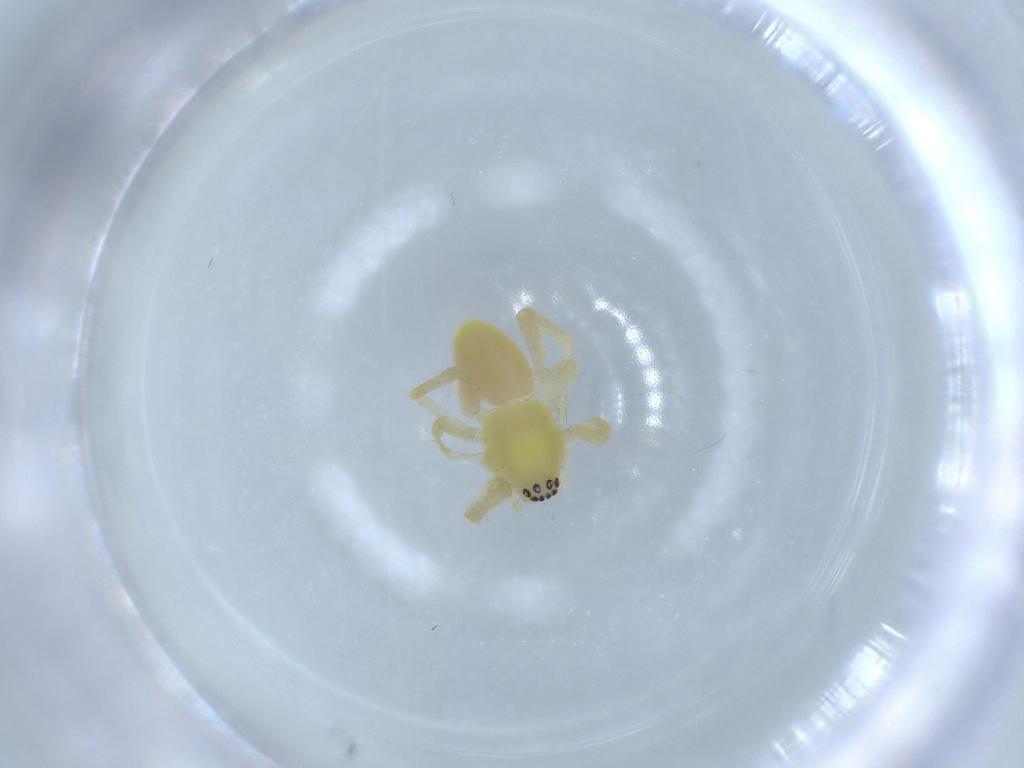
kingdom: Animalia
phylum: Arthropoda
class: Arachnida
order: Araneae
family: Anyphaenidae
